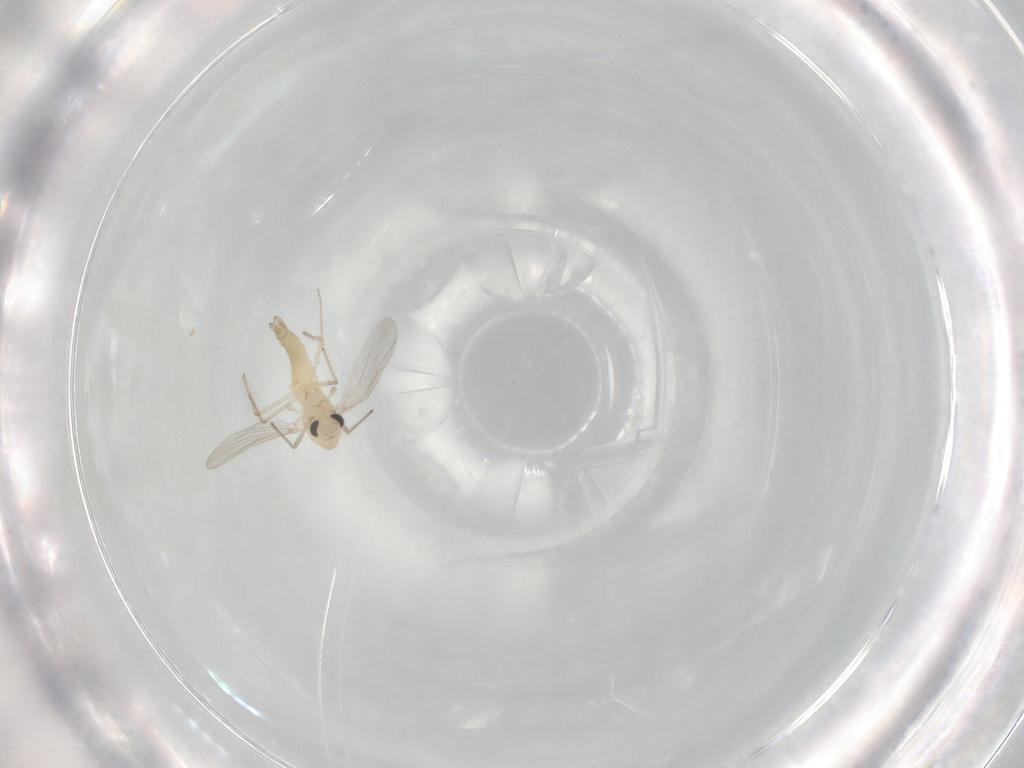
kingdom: Animalia
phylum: Arthropoda
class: Insecta
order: Diptera
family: Chironomidae
